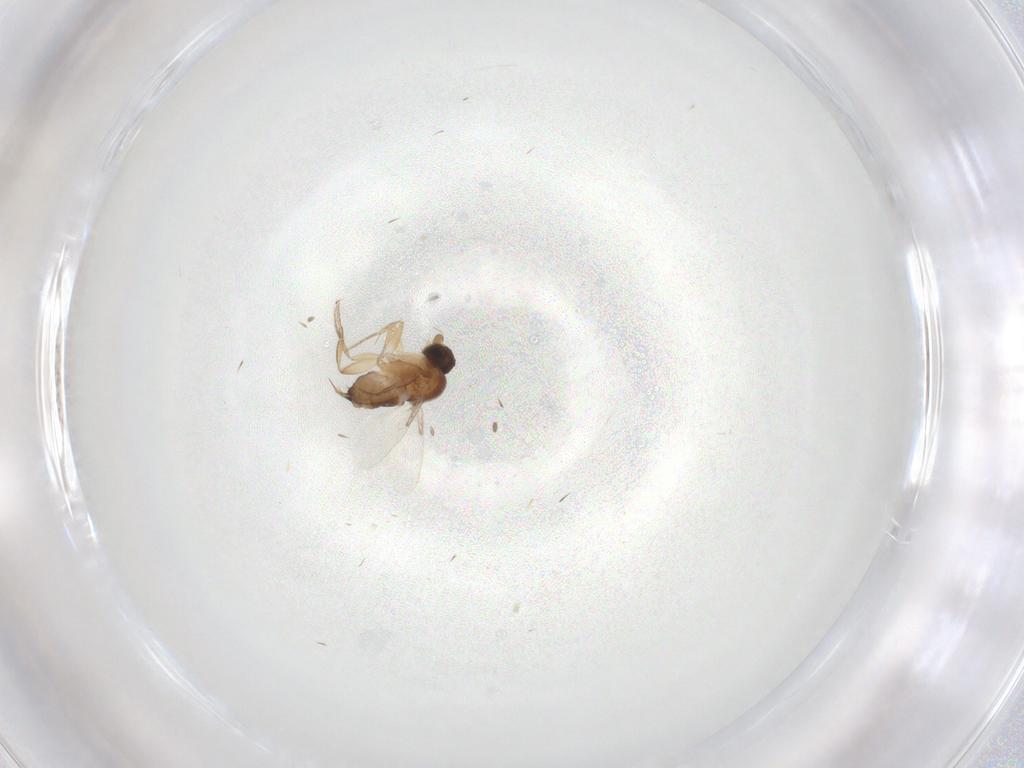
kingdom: Animalia
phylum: Arthropoda
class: Insecta
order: Diptera
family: Phoridae
